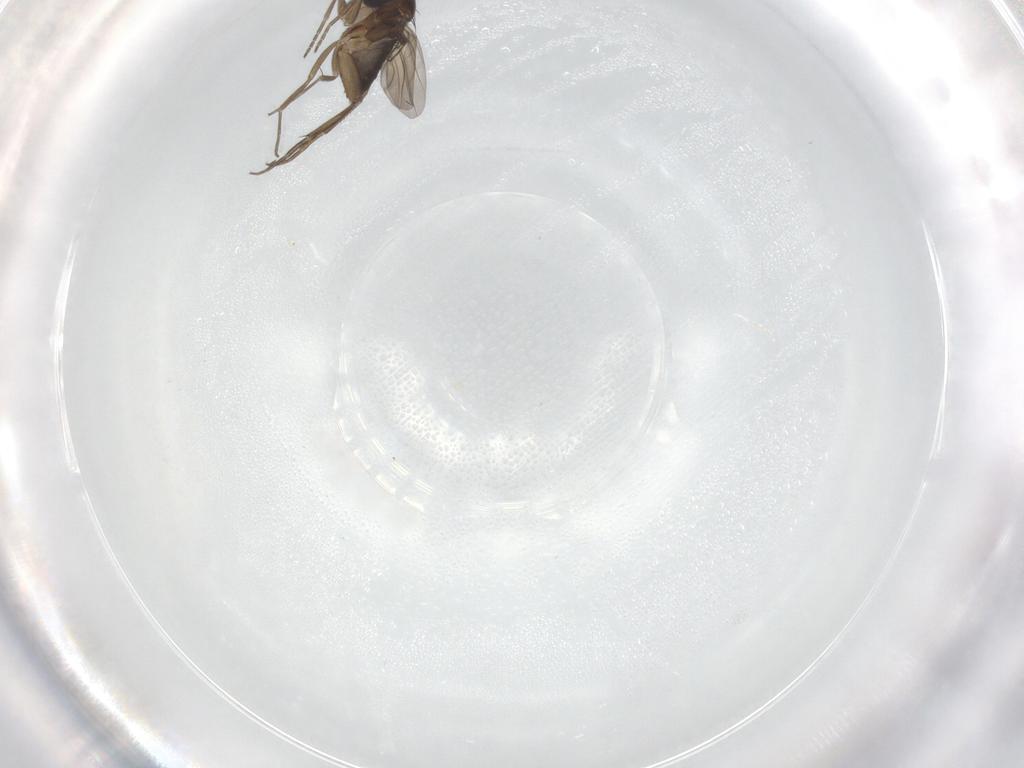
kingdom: Animalia
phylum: Arthropoda
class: Insecta
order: Diptera
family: Phoridae
